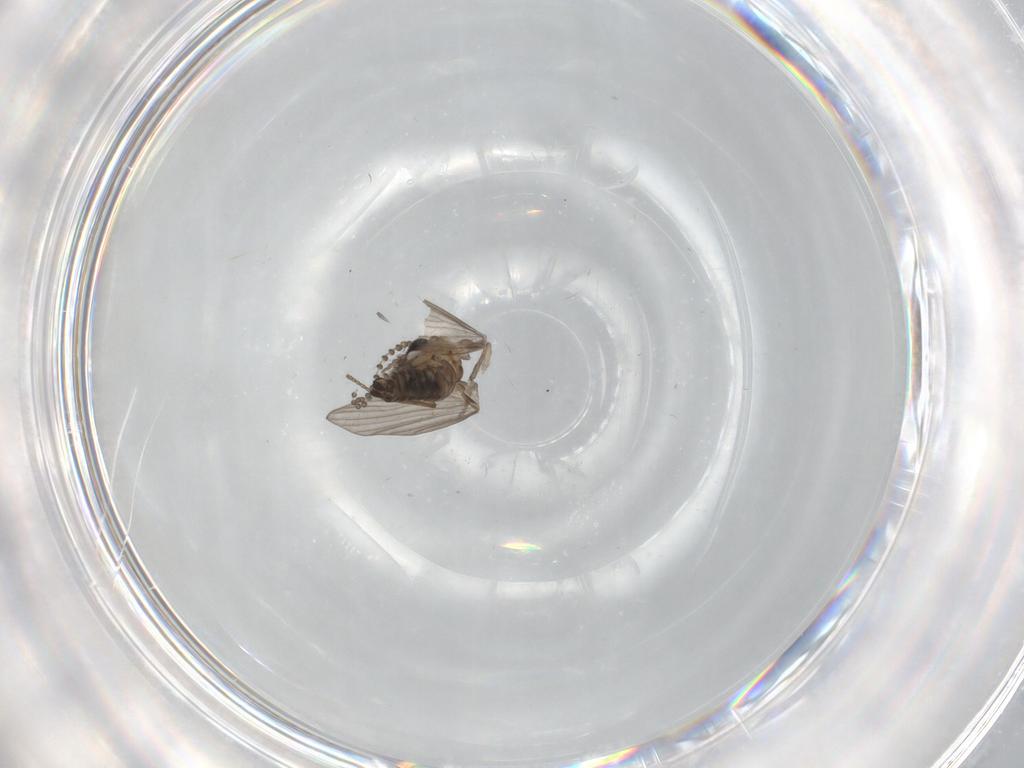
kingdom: Animalia
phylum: Arthropoda
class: Insecta
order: Diptera
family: Psychodidae
